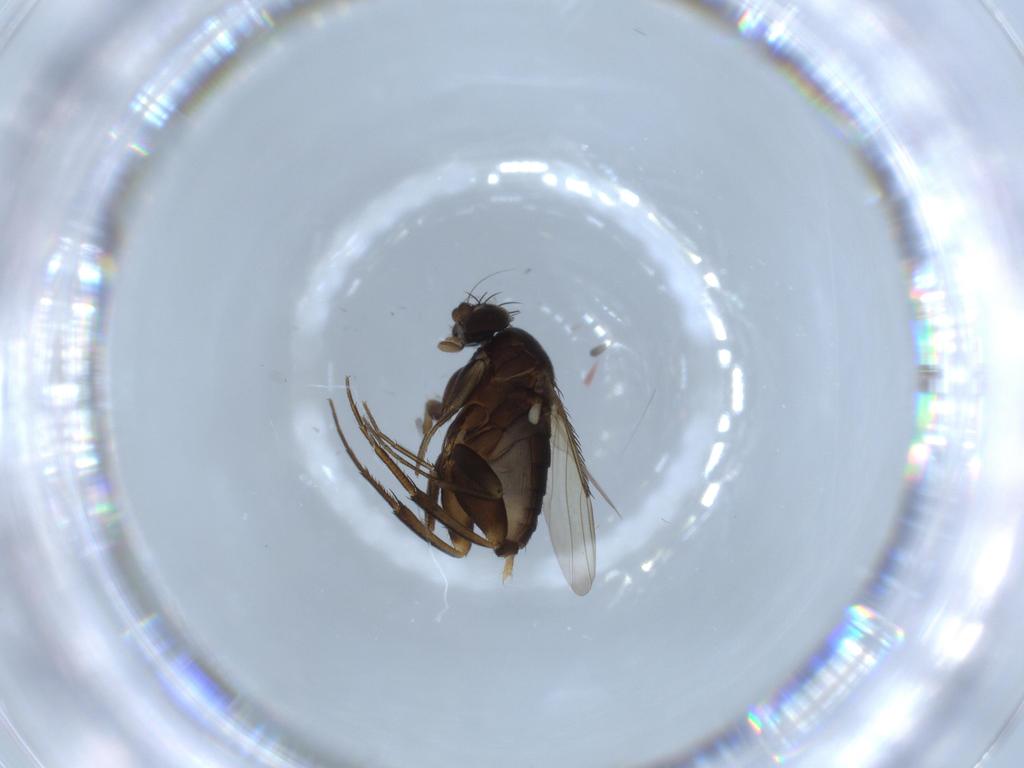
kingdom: Animalia
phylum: Arthropoda
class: Insecta
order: Diptera
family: Phoridae
